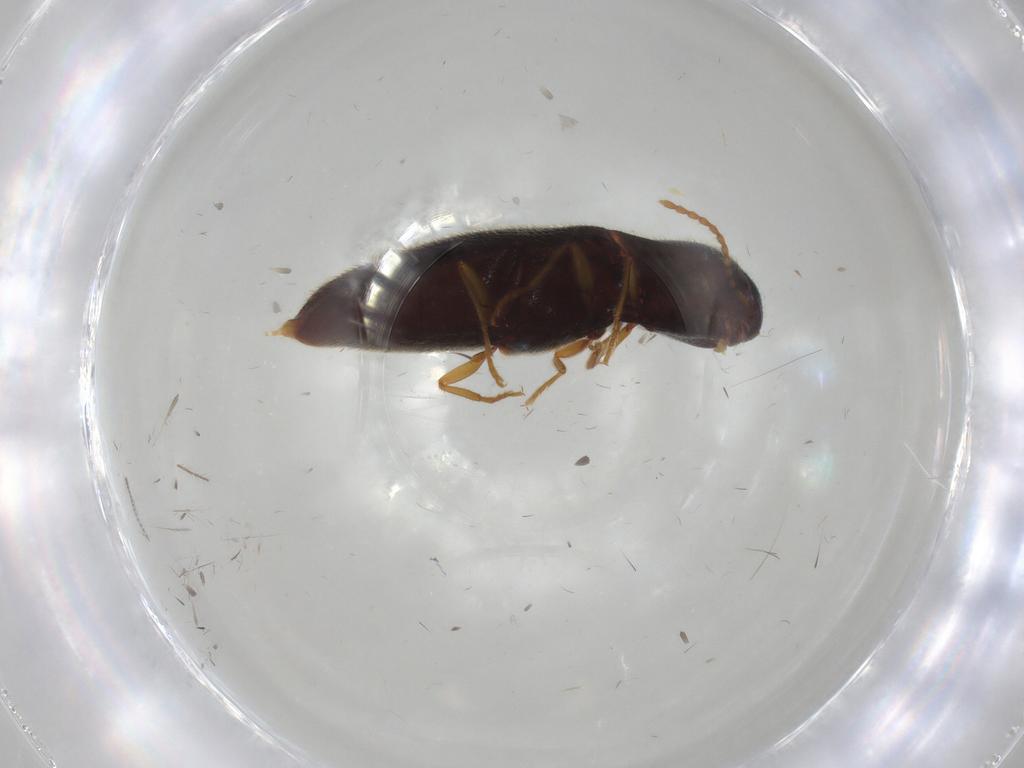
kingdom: Animalia
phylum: Arthropoda
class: Insecta
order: Coleoptera
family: Elateridae
